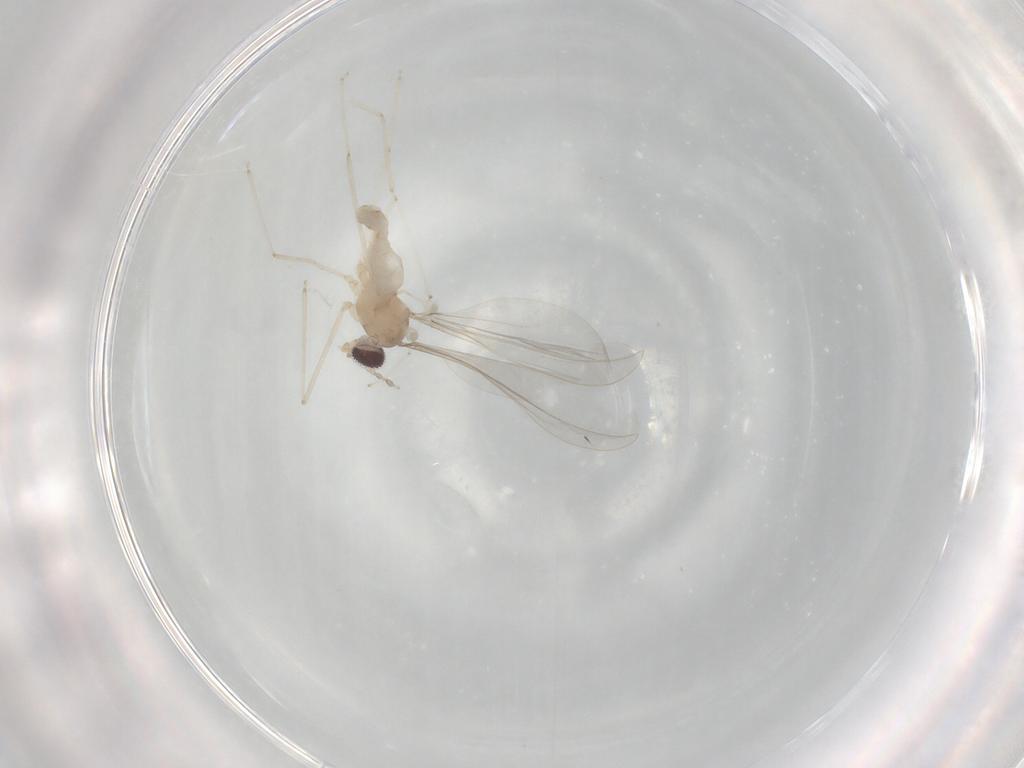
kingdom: Animalia
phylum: Arthropoda
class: Insecta
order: Diptera
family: Cecidomyiidae
